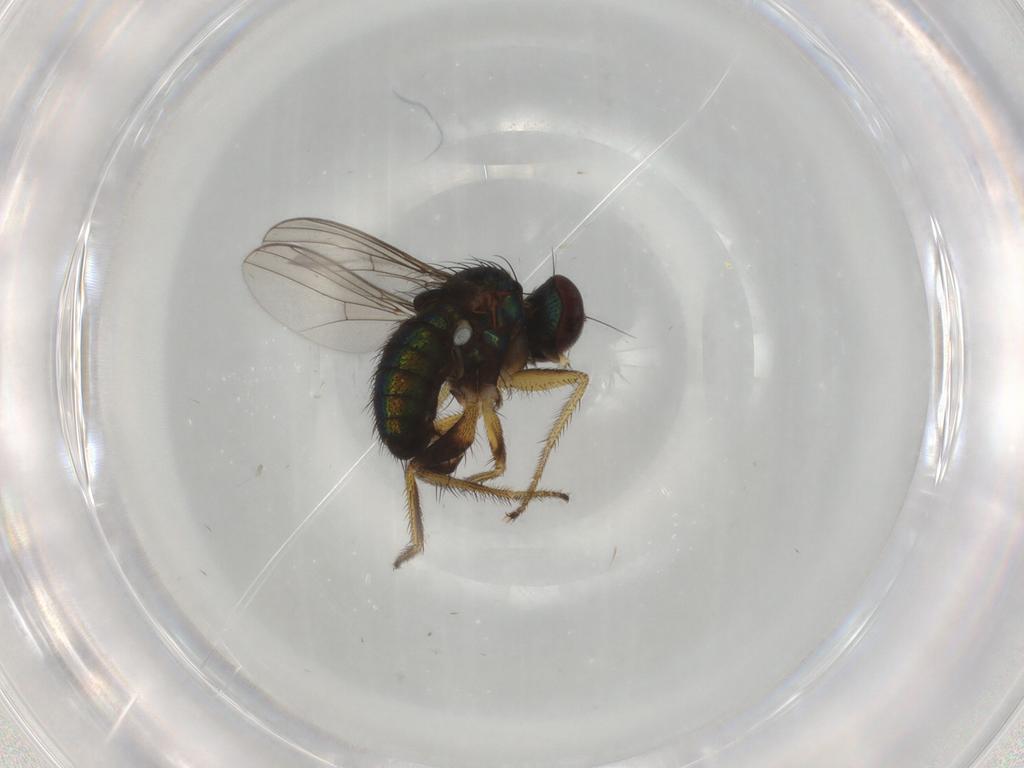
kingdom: Animalia
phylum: Arthropoda
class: Insecta
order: Diptera
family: Dolichopodidae
